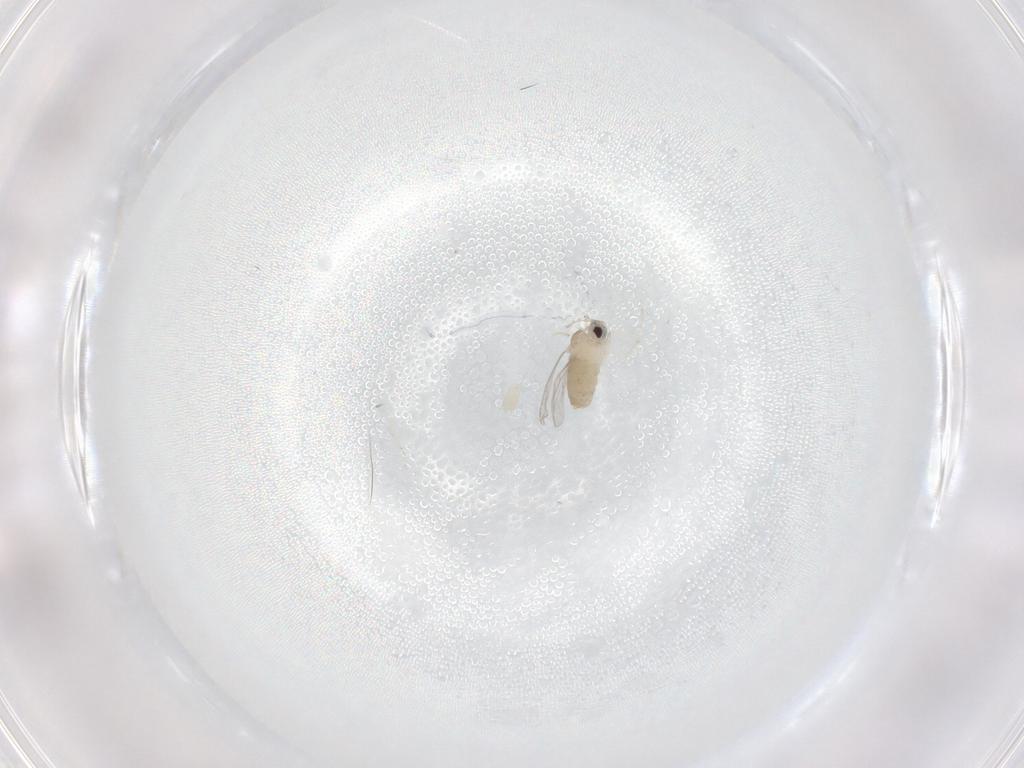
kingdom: Animalia
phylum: Arthropoda
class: Insecta
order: Diptera
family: Cecidomyiidae
